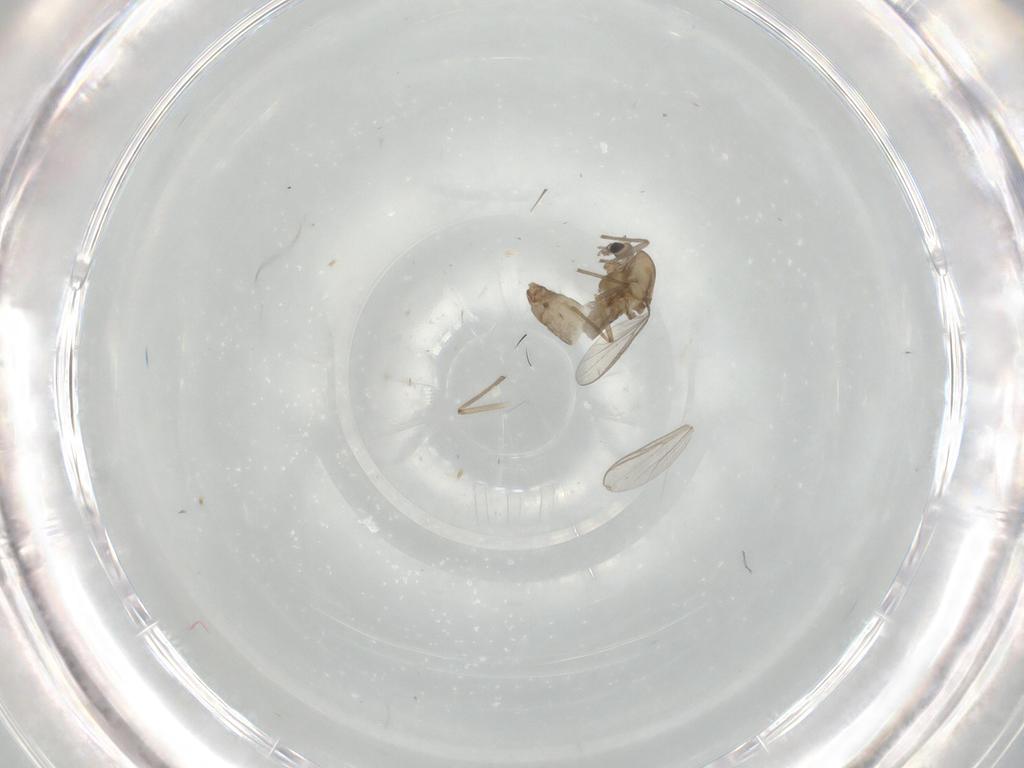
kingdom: Animalia
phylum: Arthropoda
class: Insecta
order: Diptera
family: Chironomidae
